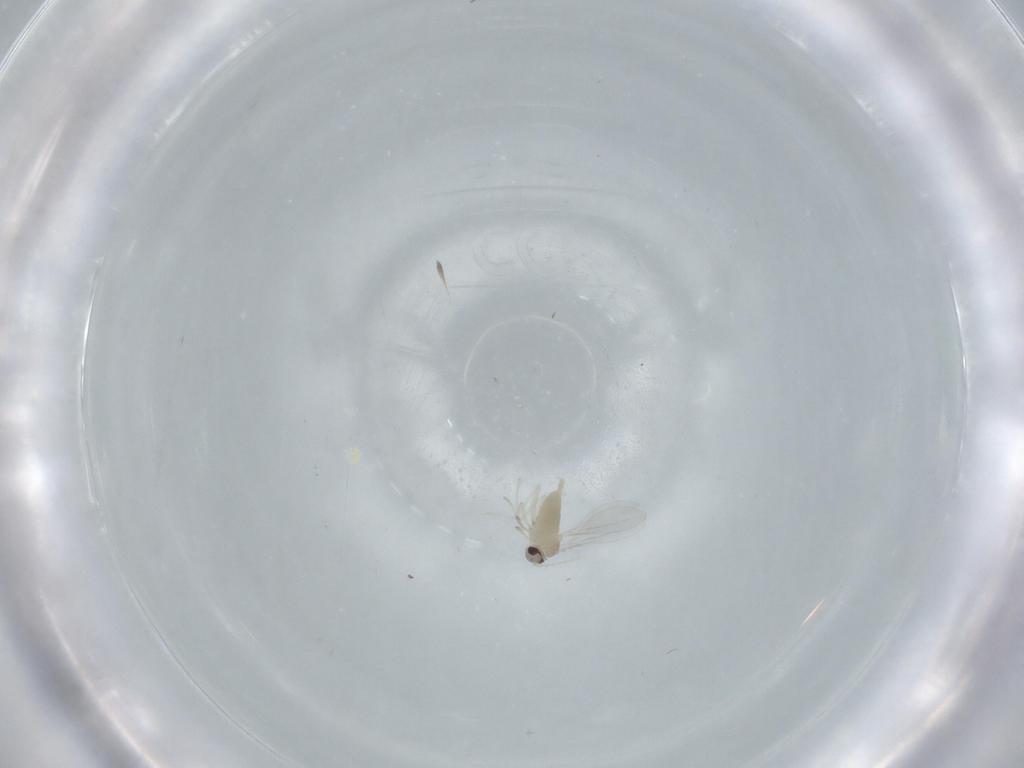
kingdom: Animalia
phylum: Arthropoda
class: Insecta
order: Diptera
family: Cecidomyiidae
